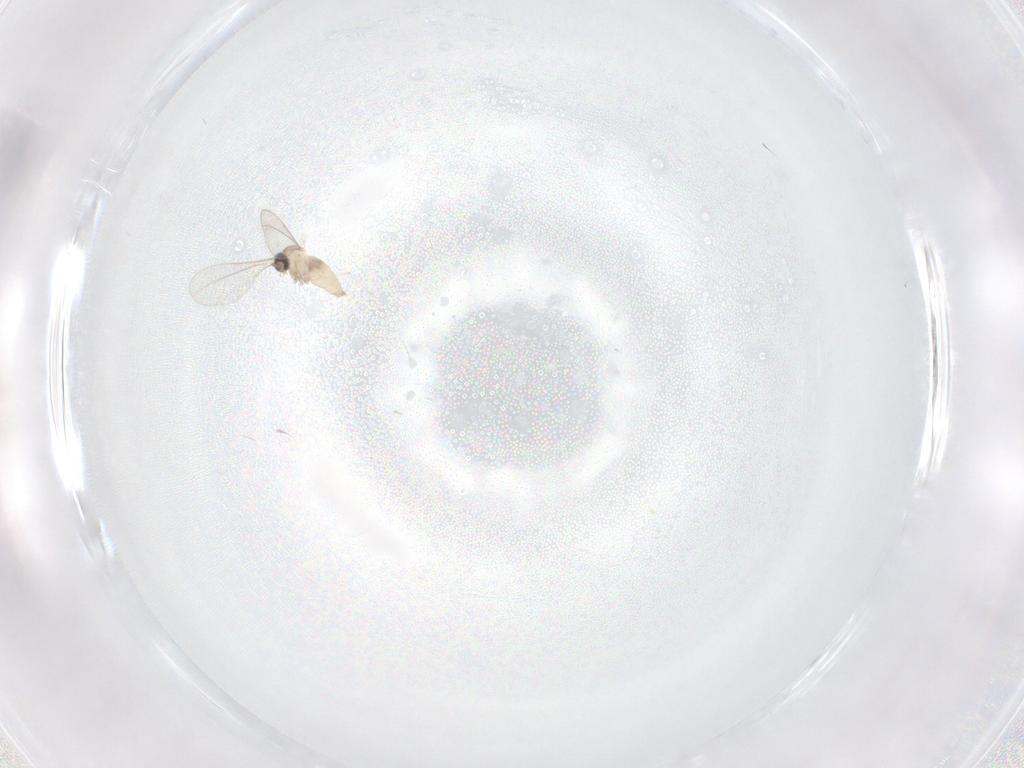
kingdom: Animalia
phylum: Arthropoda
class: Insecta
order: Diptera
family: Cecidomyiidae
